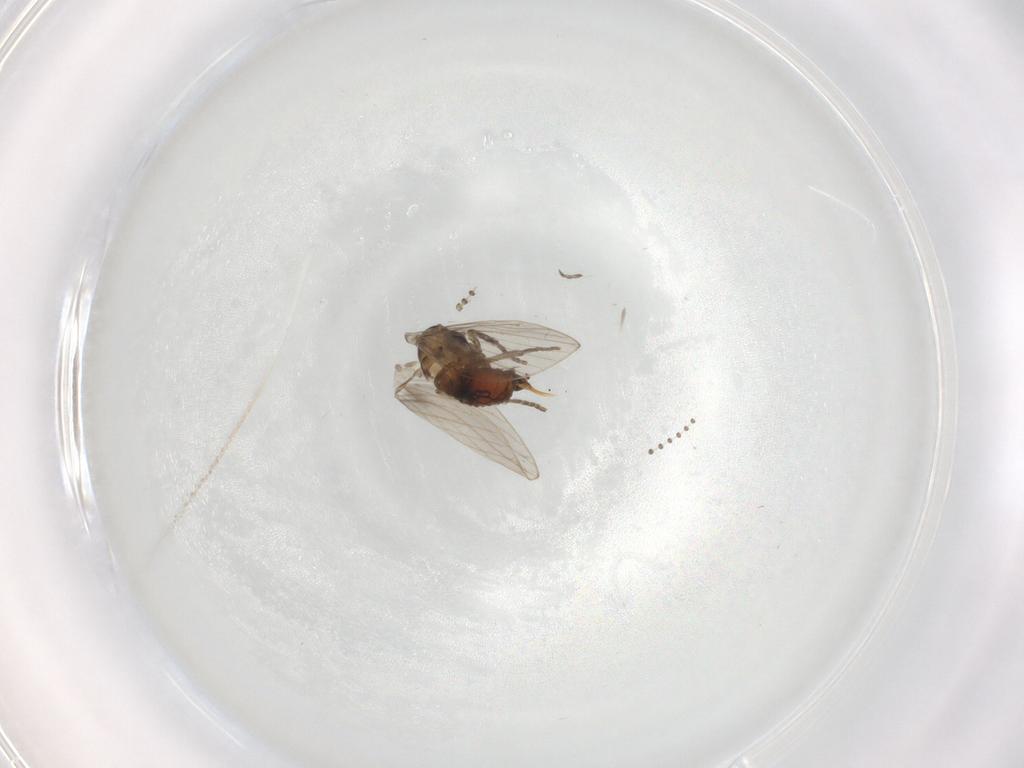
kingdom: Animalia
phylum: Arthropoda
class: Insecta
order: Diptera
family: Psychodidae
